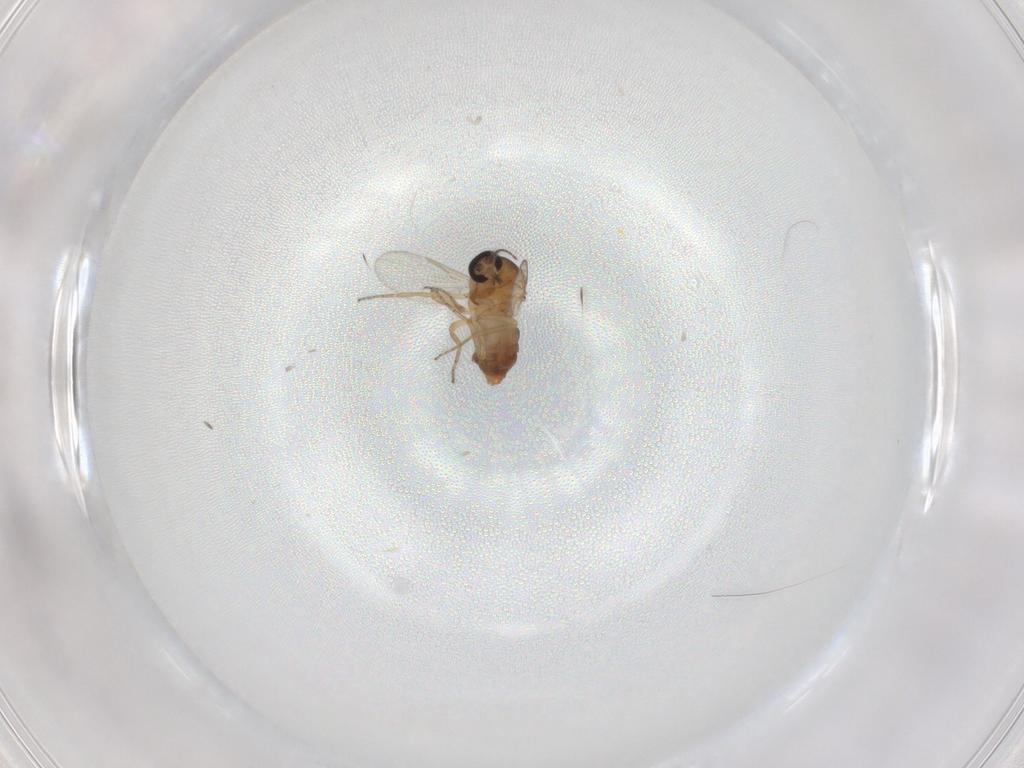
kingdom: Animalia
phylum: Arthropoda
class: Insecta
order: Diptera
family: Ceratopogonidae
